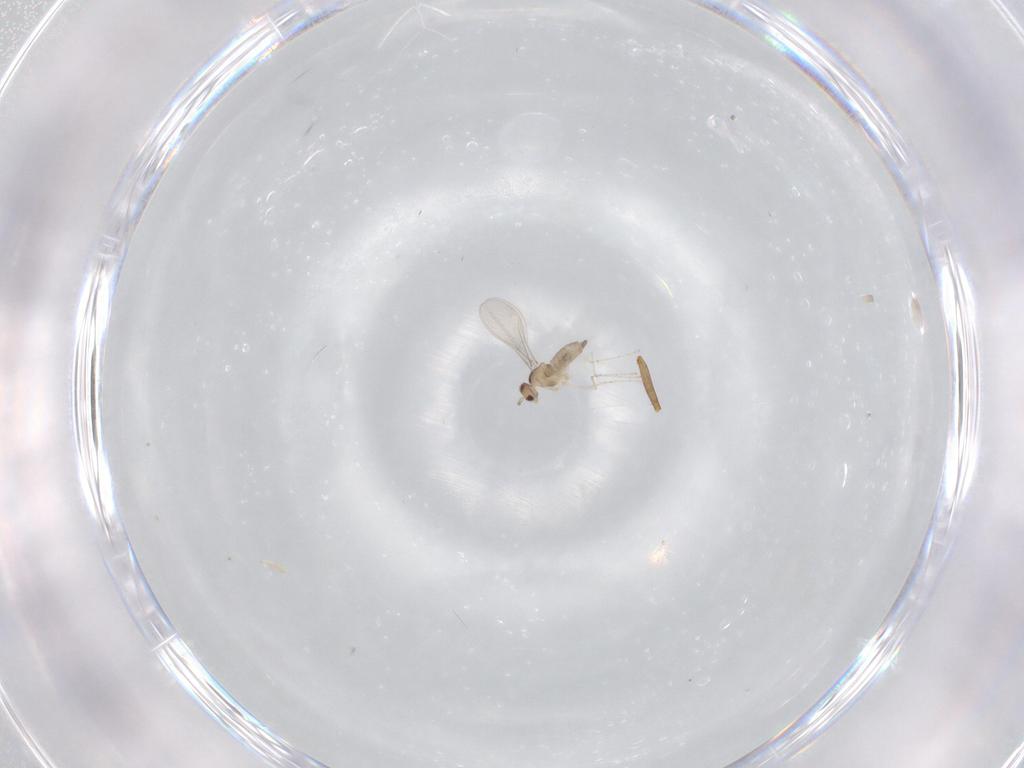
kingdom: Animalia
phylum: Arthropoda
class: Insecta
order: Diptera
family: Cecidomyiidae
